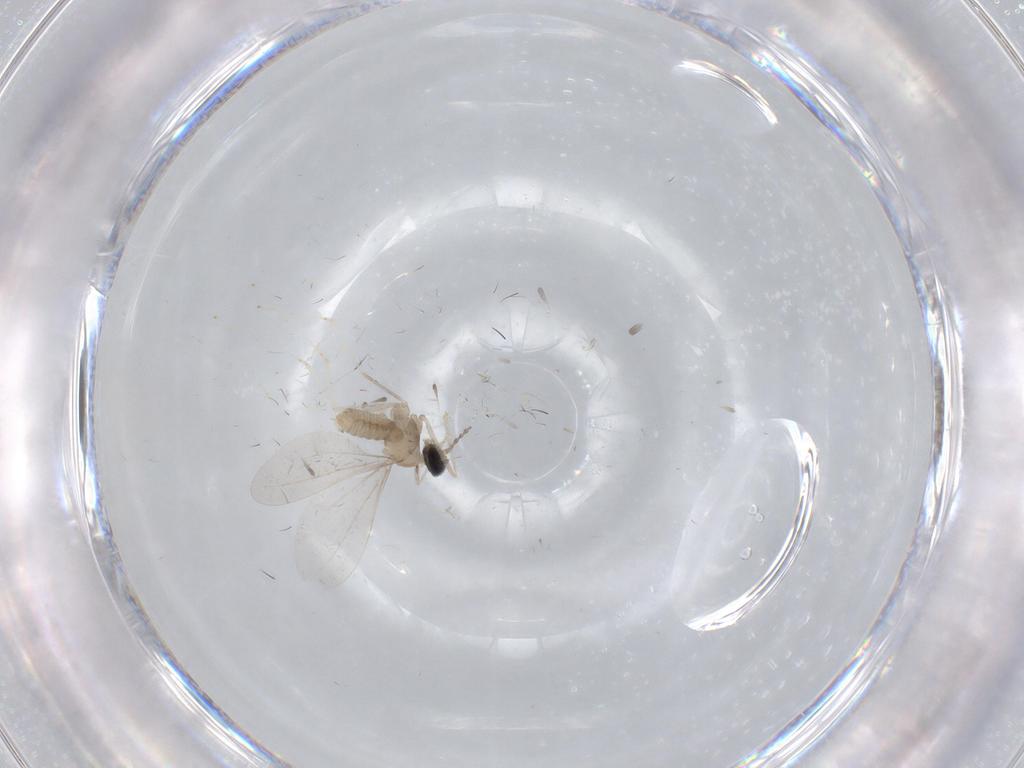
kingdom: Animalia
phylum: Arthropoda
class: Insecta
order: Diptera
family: Cecidomyiidae
